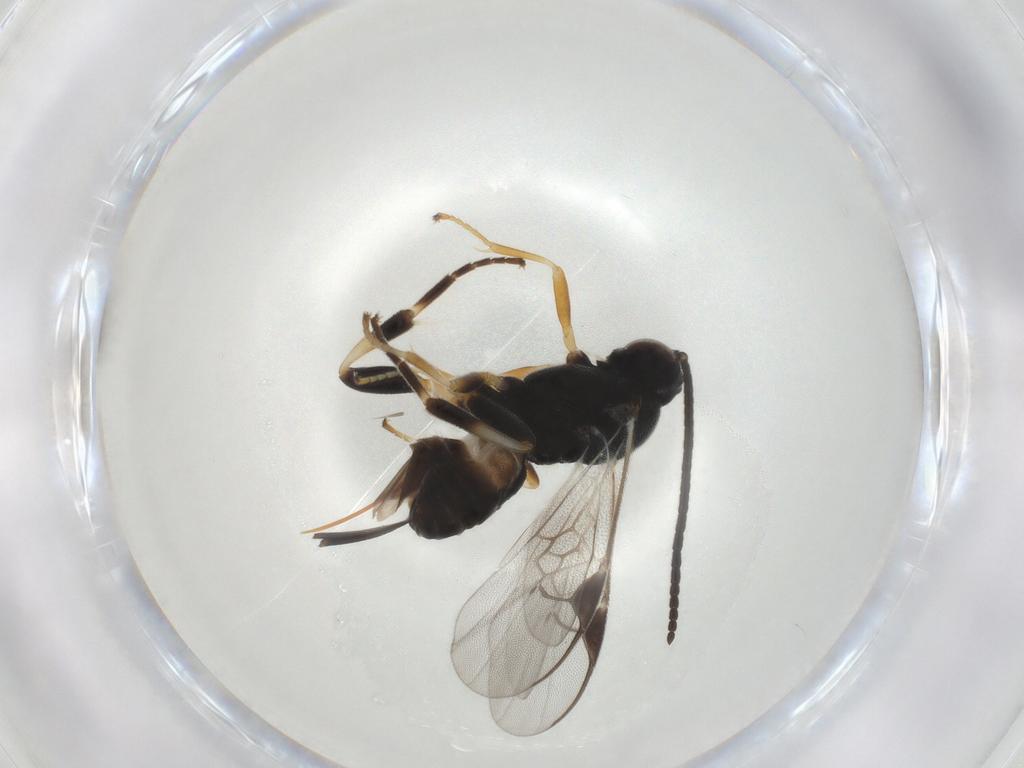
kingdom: Animalia
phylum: Arthropoda
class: Insecta
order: Hymenoptera
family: Braconidae
